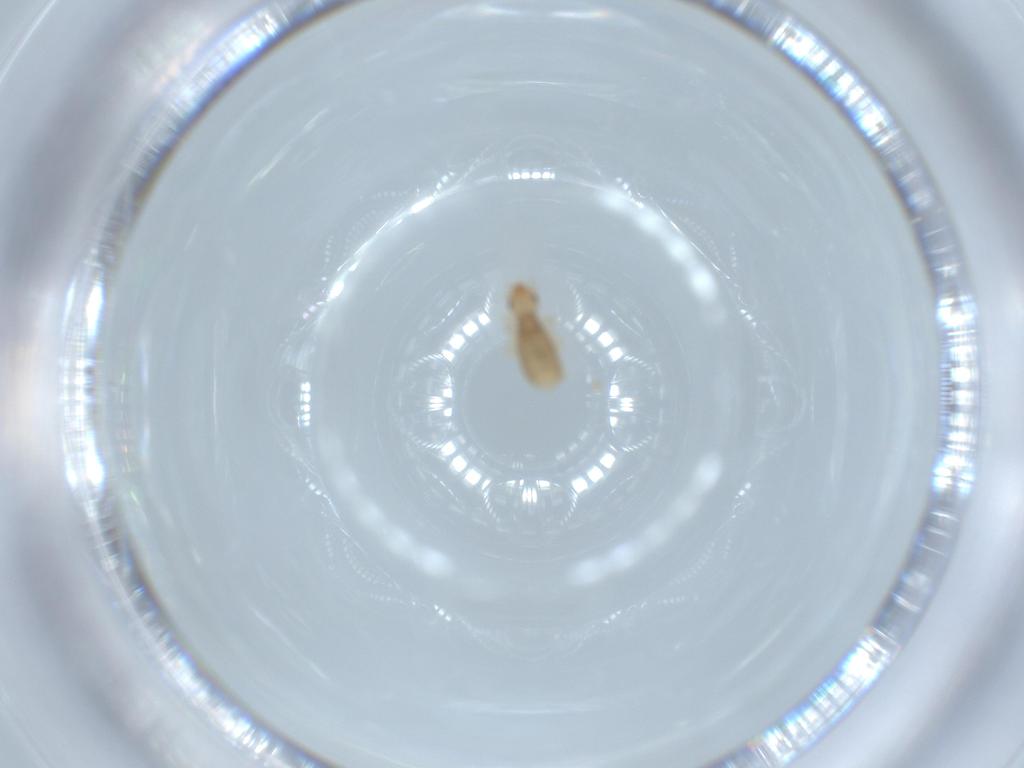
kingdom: Animalia
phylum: Arthropoda
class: Insecta
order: Psocodea
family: Liposcelididae
